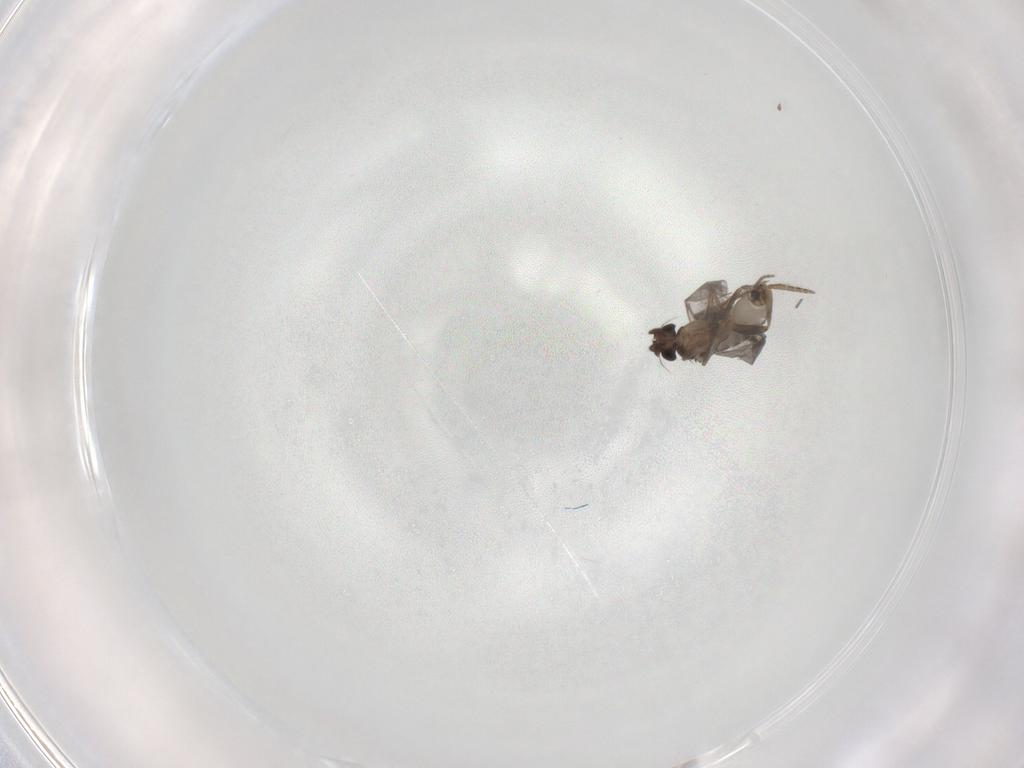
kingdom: Animalia
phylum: Arthropoda
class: Insecta
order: Diptera
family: Phoridae
